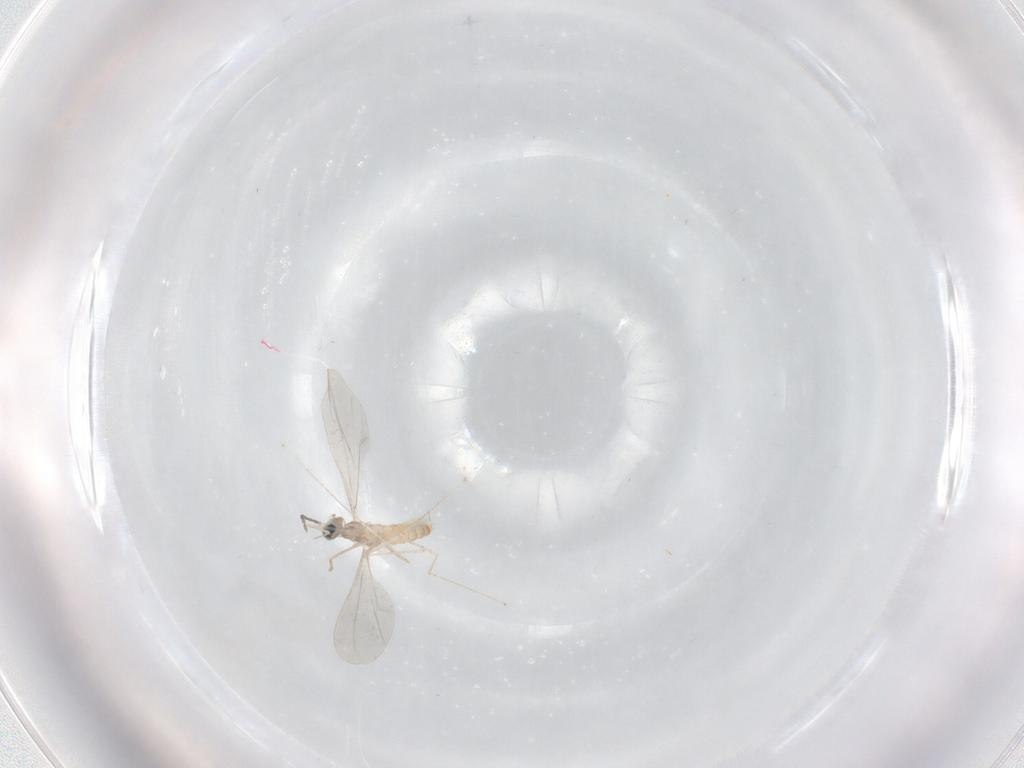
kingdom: Animalia
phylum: Arthropoda
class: Insecta
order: Diptera
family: Cecidomyiidae
